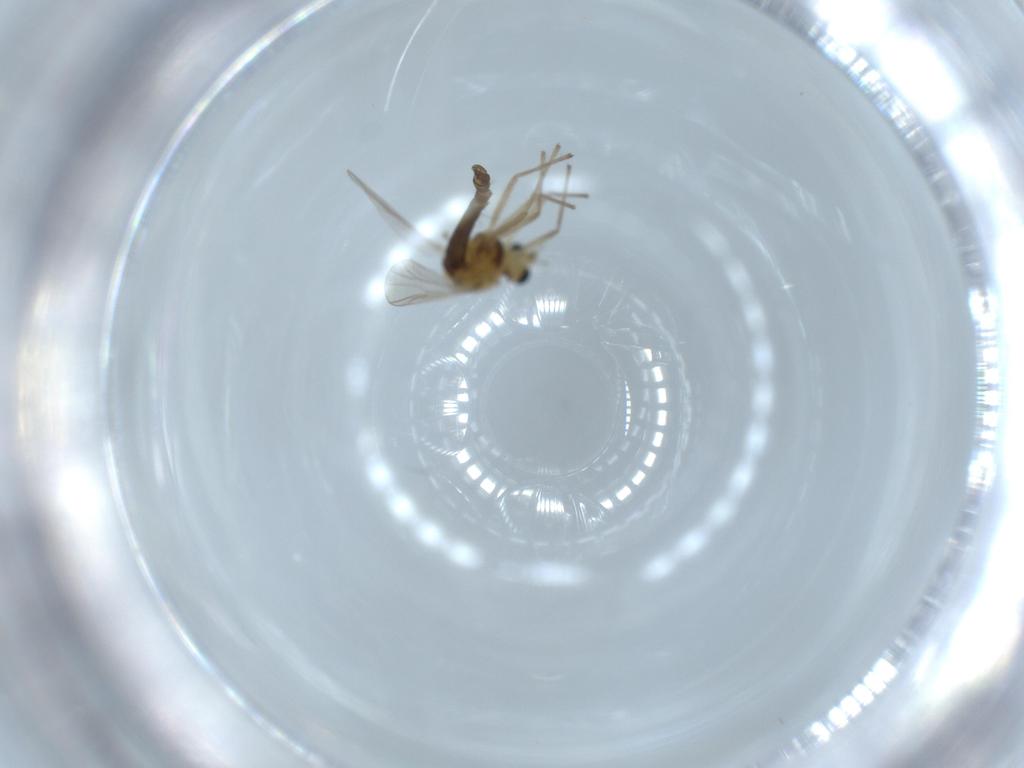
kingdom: Animalia
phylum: Arthropoda
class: Insecta
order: Diptera
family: Chironomidae
